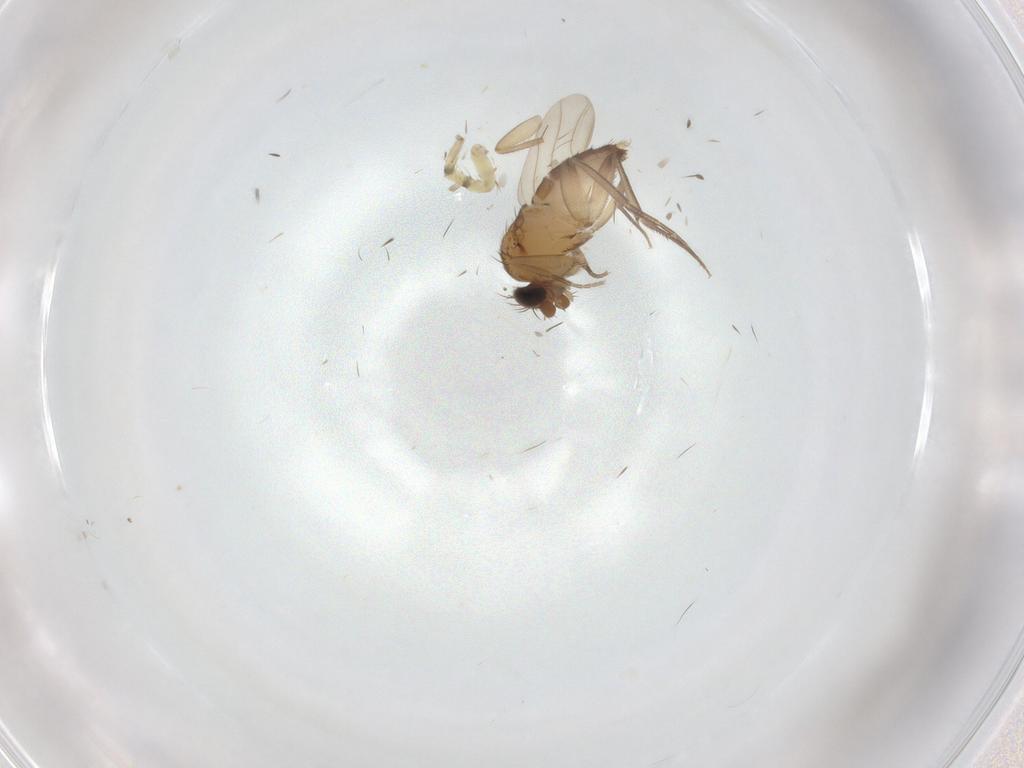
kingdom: Animalia
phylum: Arthropoda
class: Insecta
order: Diptera
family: Phoridae
